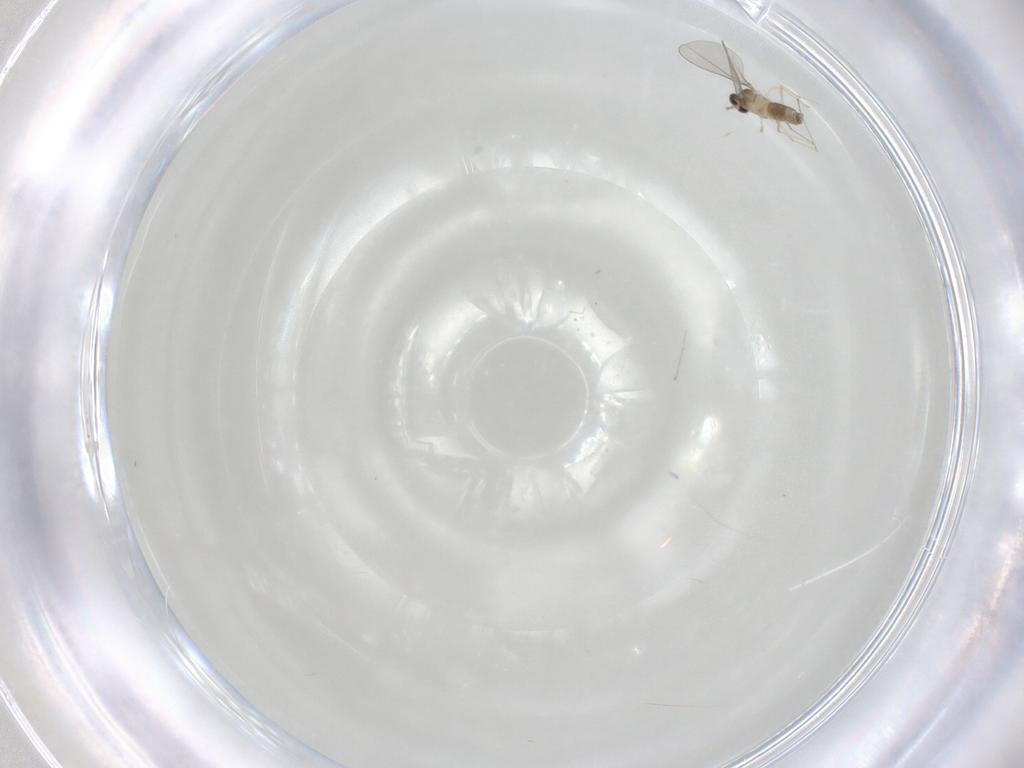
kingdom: Animalia
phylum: Arthropoda
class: Insecta
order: Diptera
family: Cecidomyiidae
